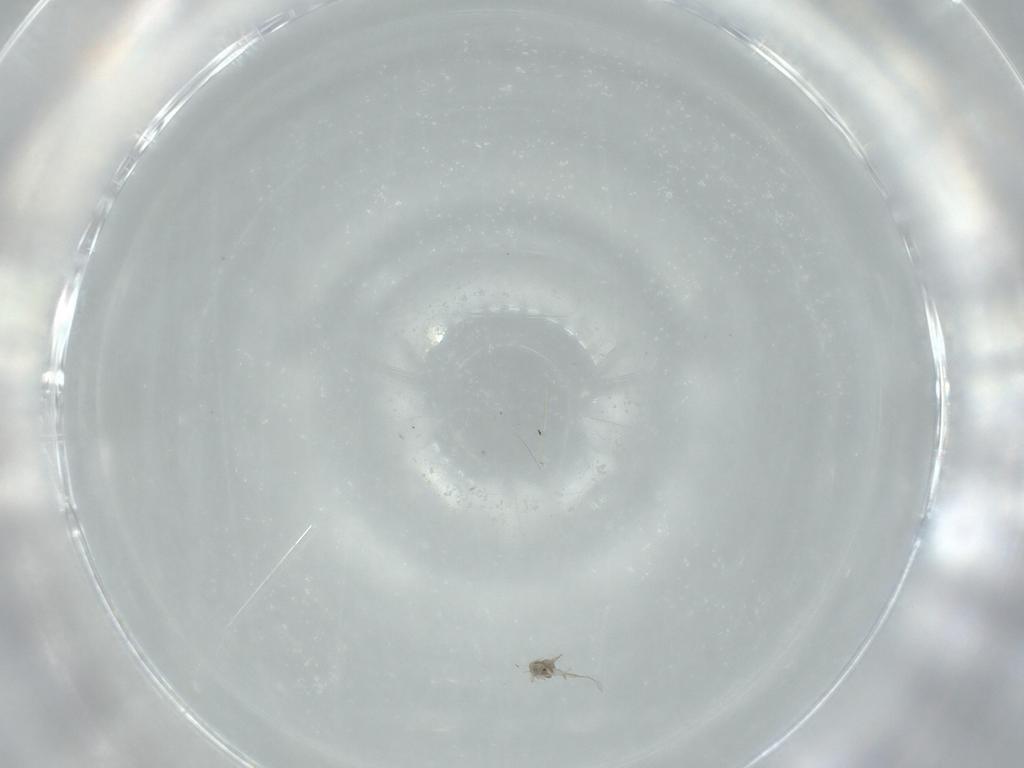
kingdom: Animalia
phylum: Arthropoda
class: Insecta
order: Diptera
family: Cecidomyiidae
